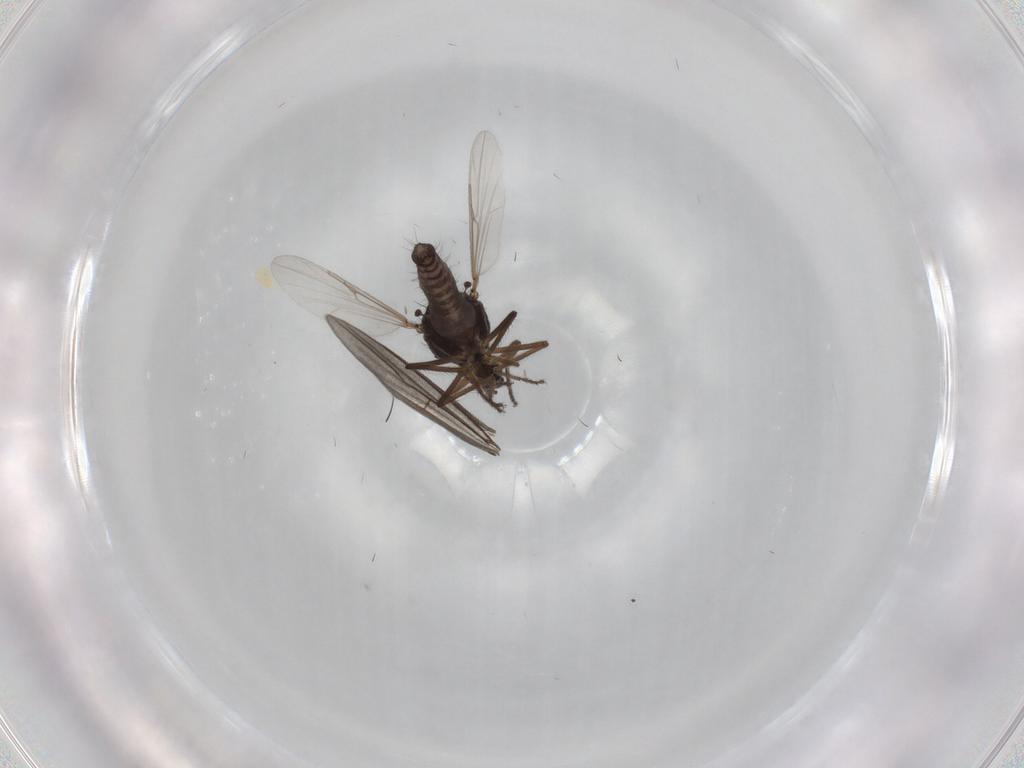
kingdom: Animalia
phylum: Arthropoda
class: Insecta
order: Diptera
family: Ceratopogonidae
